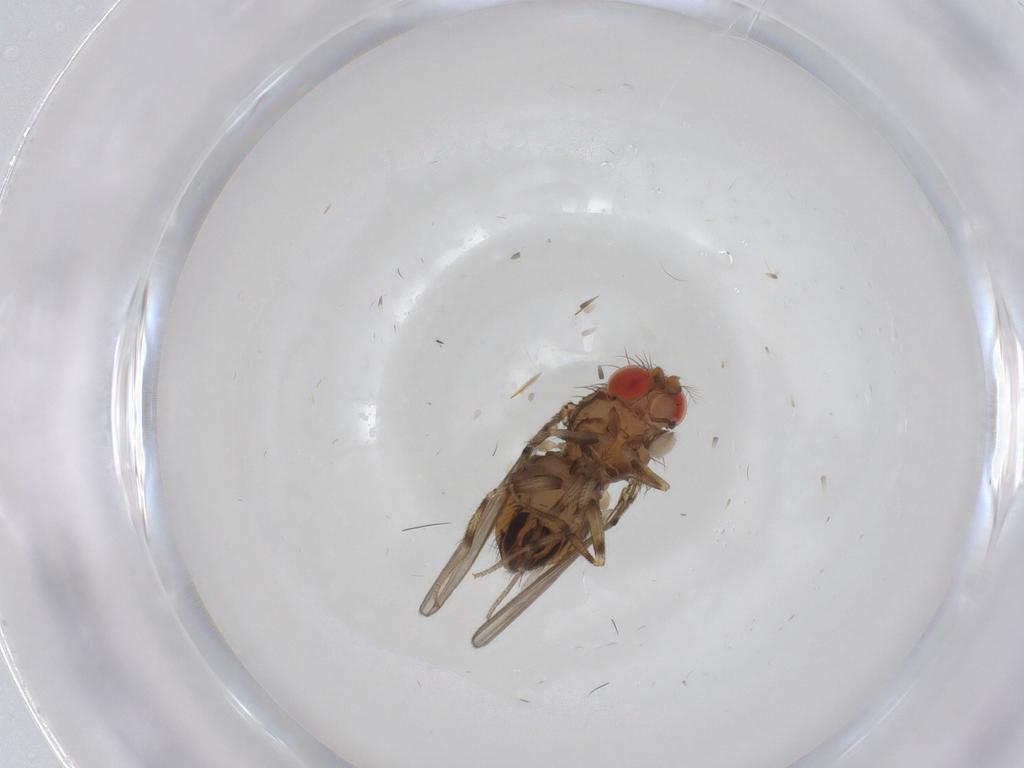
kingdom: Animalia
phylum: Arthropoda
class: Insecta
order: Diptera
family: Drosophilidae
